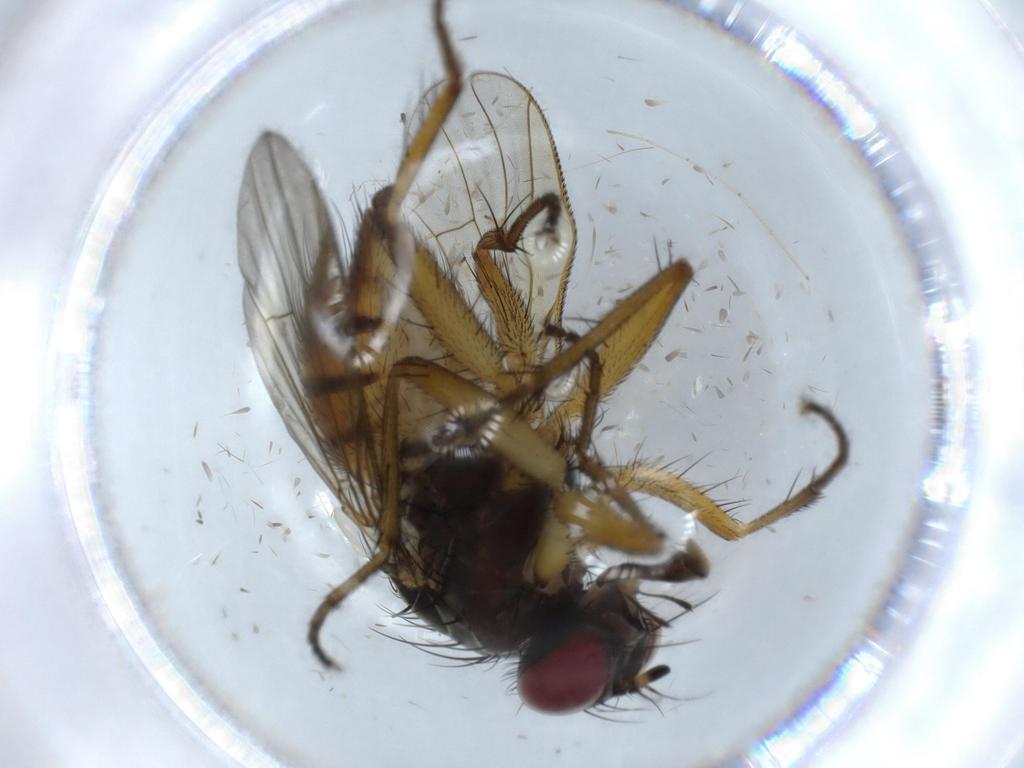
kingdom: Animalia
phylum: Arthropoda
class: Insecta
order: Diptera
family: Muscidae
